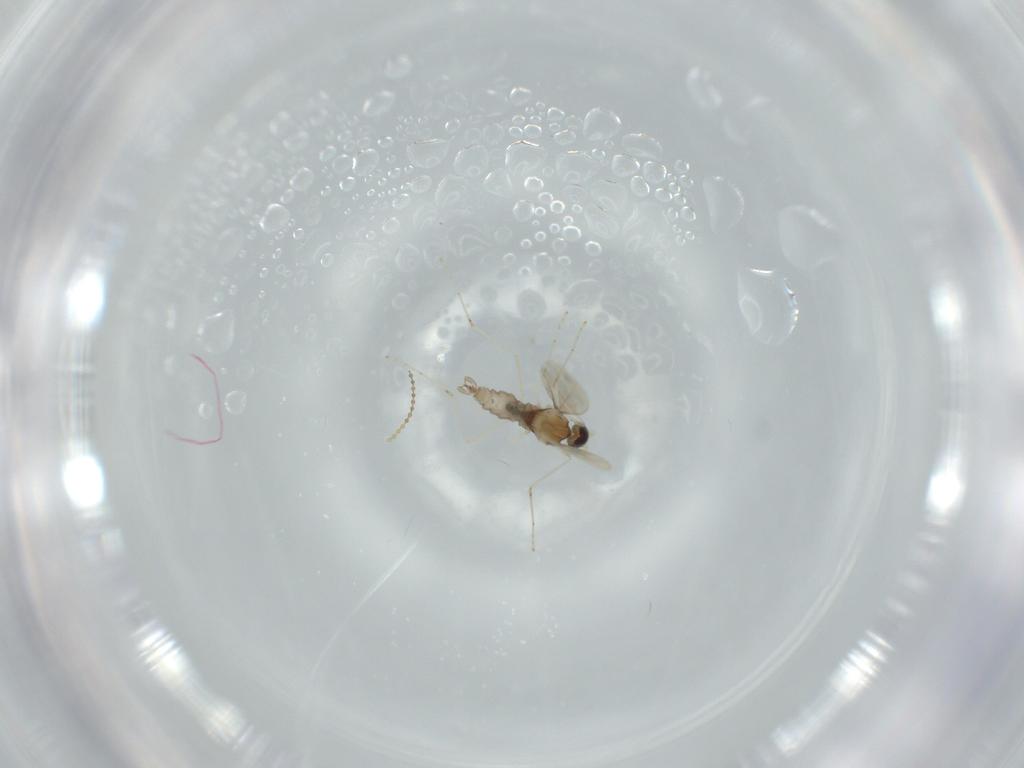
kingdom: Animalia
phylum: Arthropoda
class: Insecta
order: Diptera
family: Cecidomyiidae
